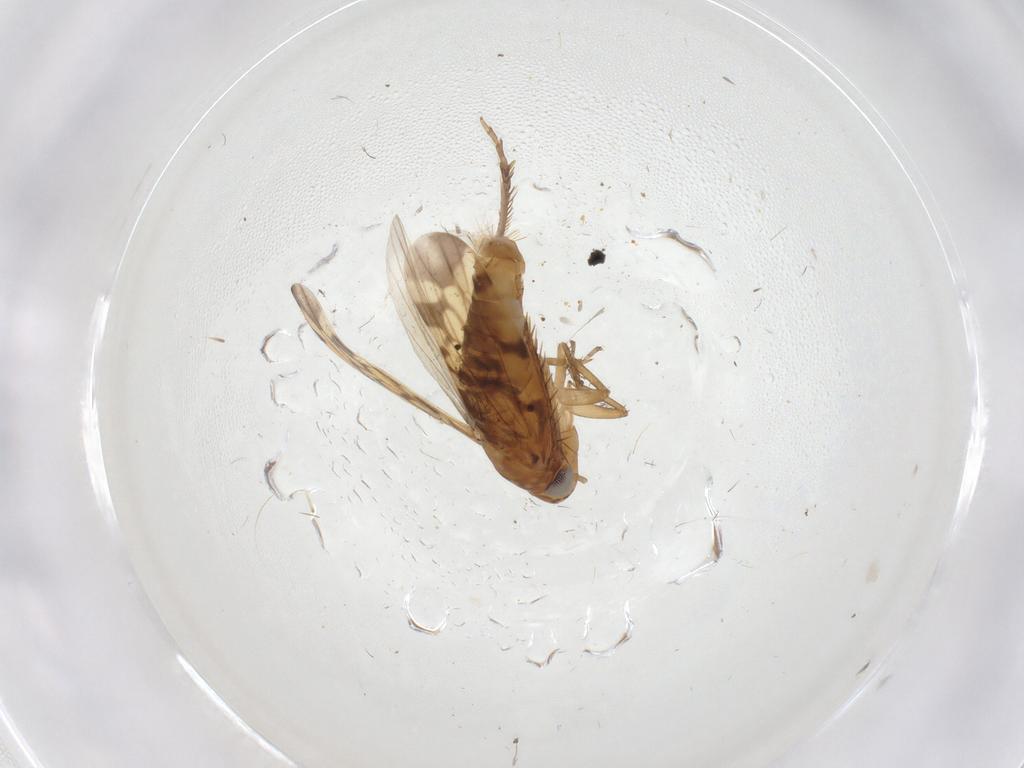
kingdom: Animalia
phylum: Arthropoda
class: Insecta
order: Hemiptera
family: Cicadellidae
